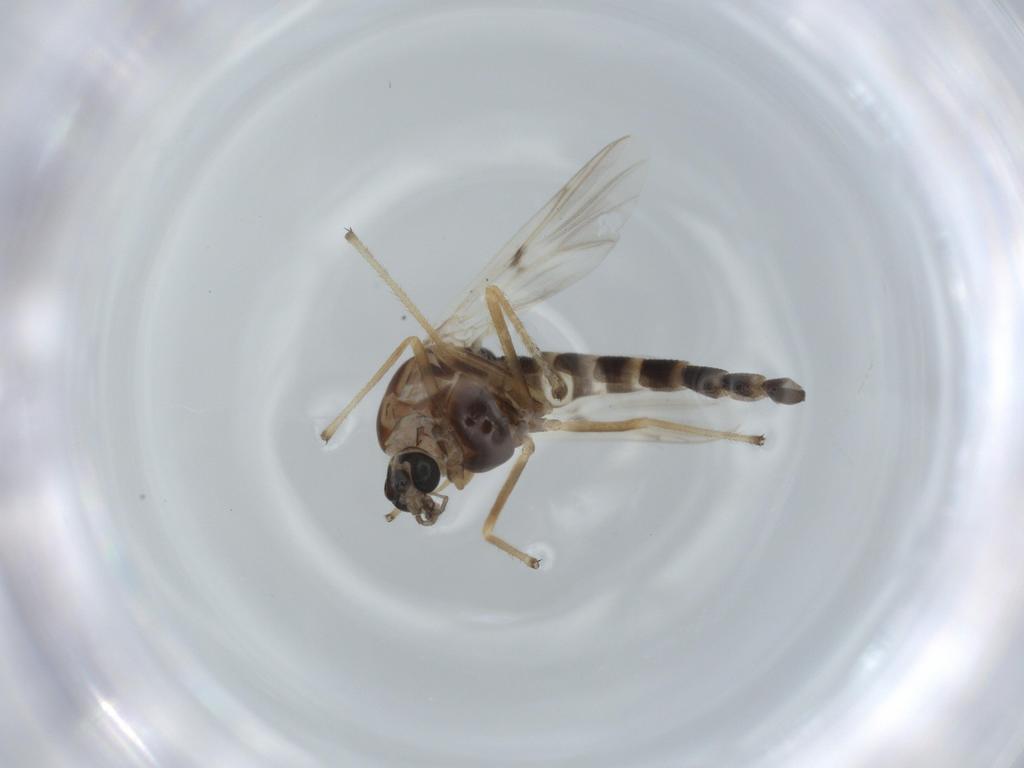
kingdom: Animalia
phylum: Arthropoda
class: Insecta
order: Diptera
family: Chironomidae
